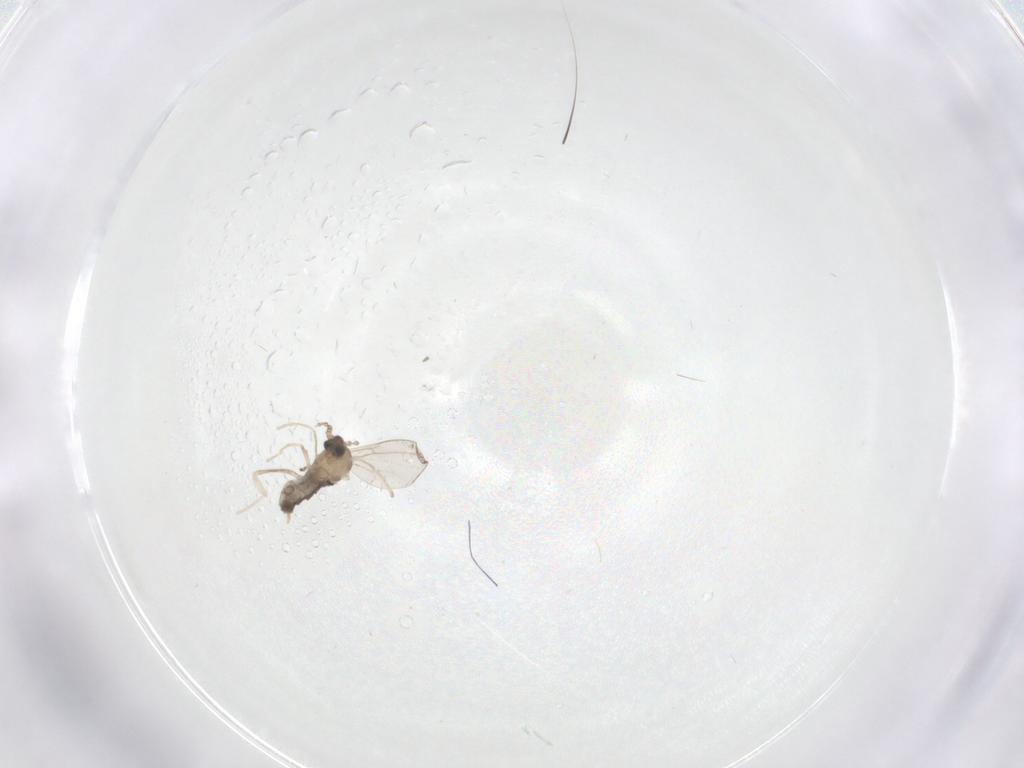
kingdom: Animalia
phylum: Arthropoda
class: Insecta
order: Diptera
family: Cecidomyiidae
